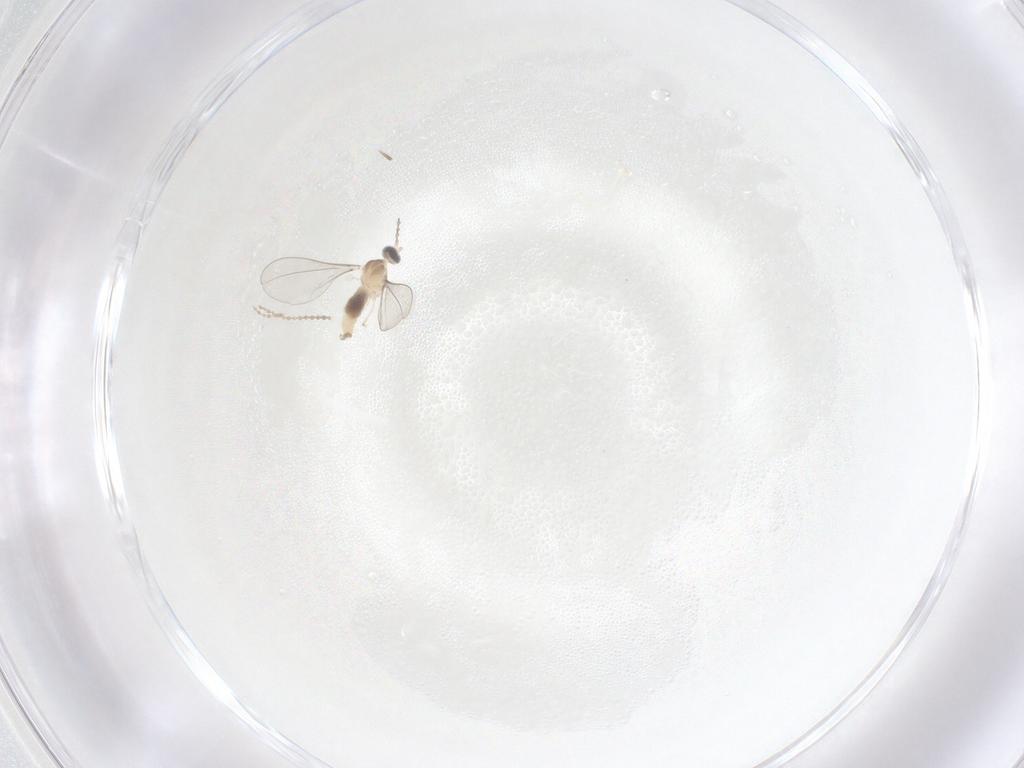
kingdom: Animalia
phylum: Arthropoda
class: Insecta
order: Diptera
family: Cecidomyiidae
